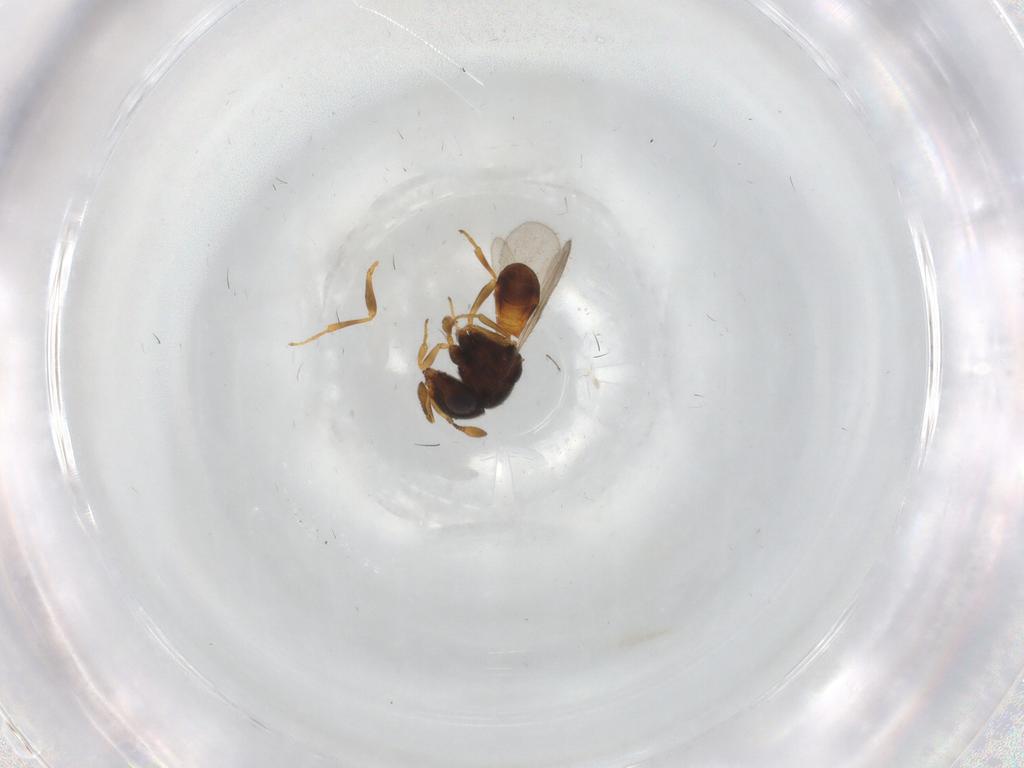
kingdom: Animalia
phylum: Arthropoda
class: Insecta
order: Hymenoptera
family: Scelionidae
